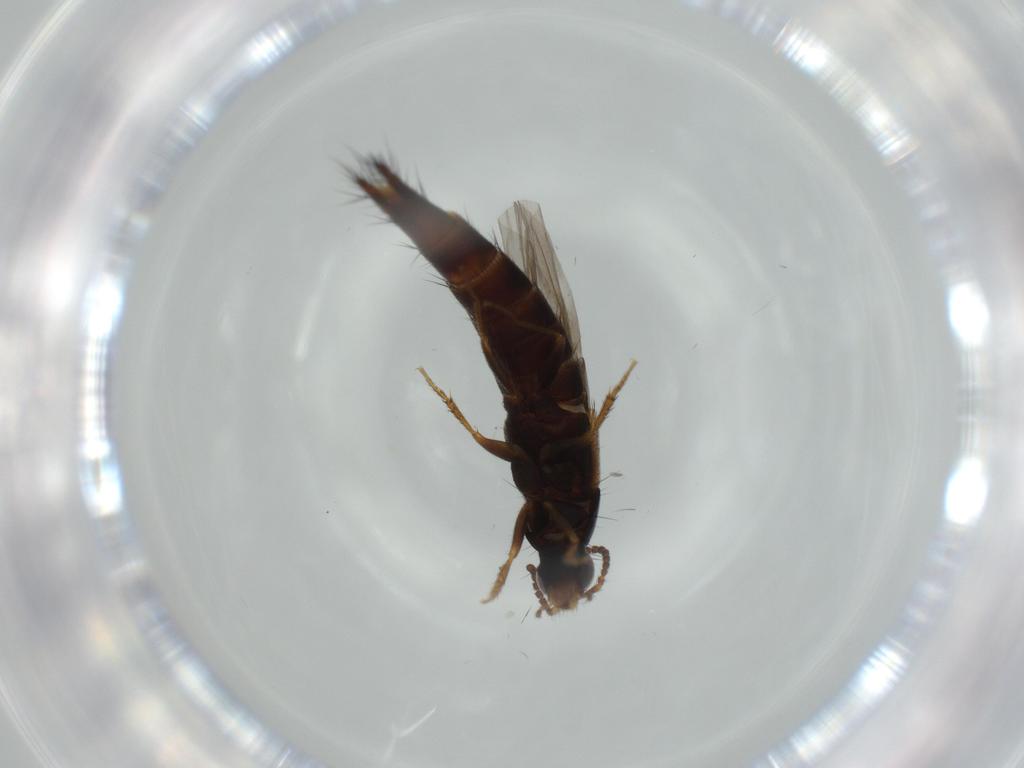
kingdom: Animalia
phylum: Arthropoda
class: Insecta
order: Coleoptera
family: Staphylinidae
